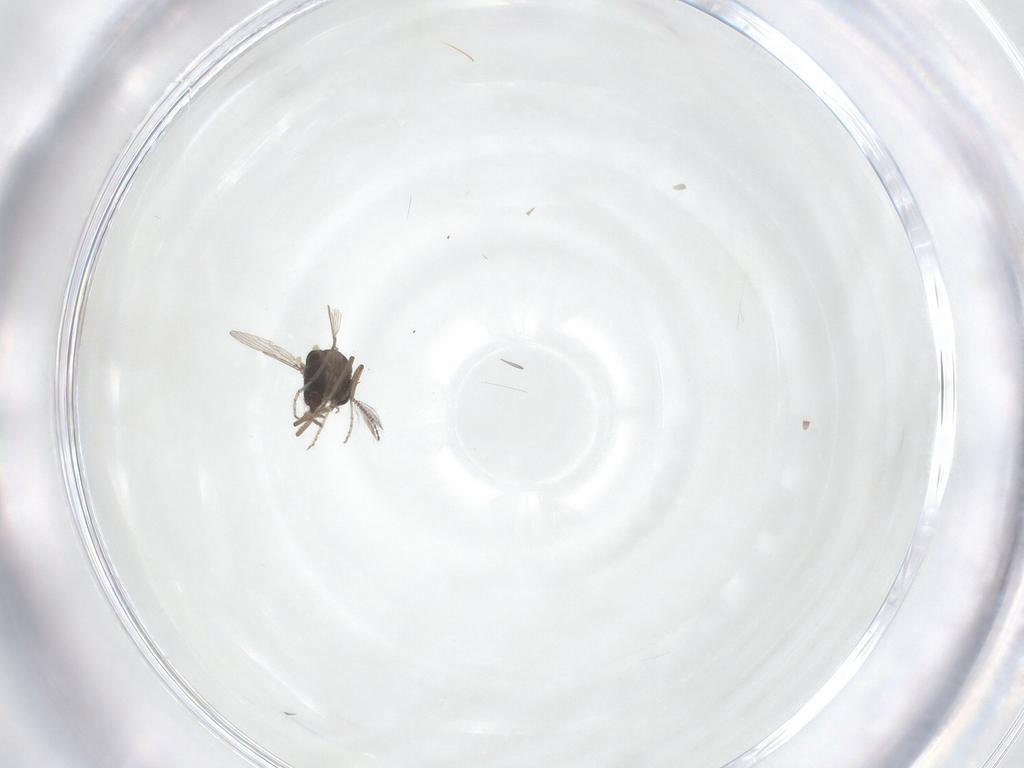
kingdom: Animalia
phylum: Arthropoda
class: Insecta
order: Diptera
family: Ceratopogonidae
